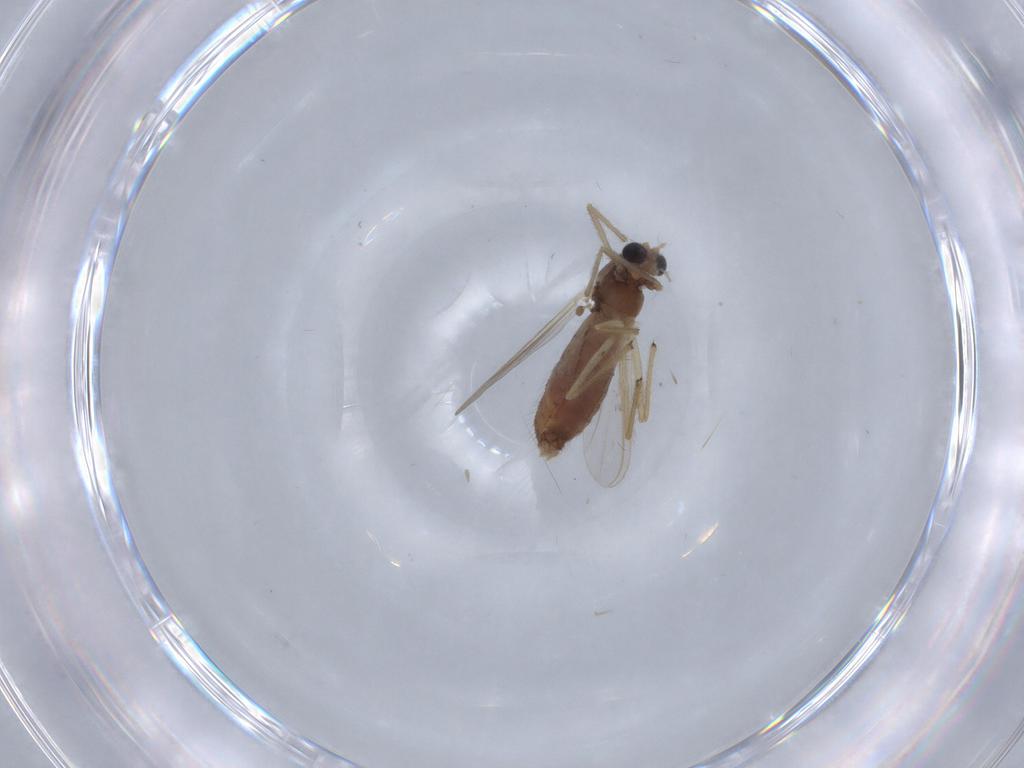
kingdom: Animalia
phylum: Arthropoda
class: Insecta
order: Diptera
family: Chironomidae
